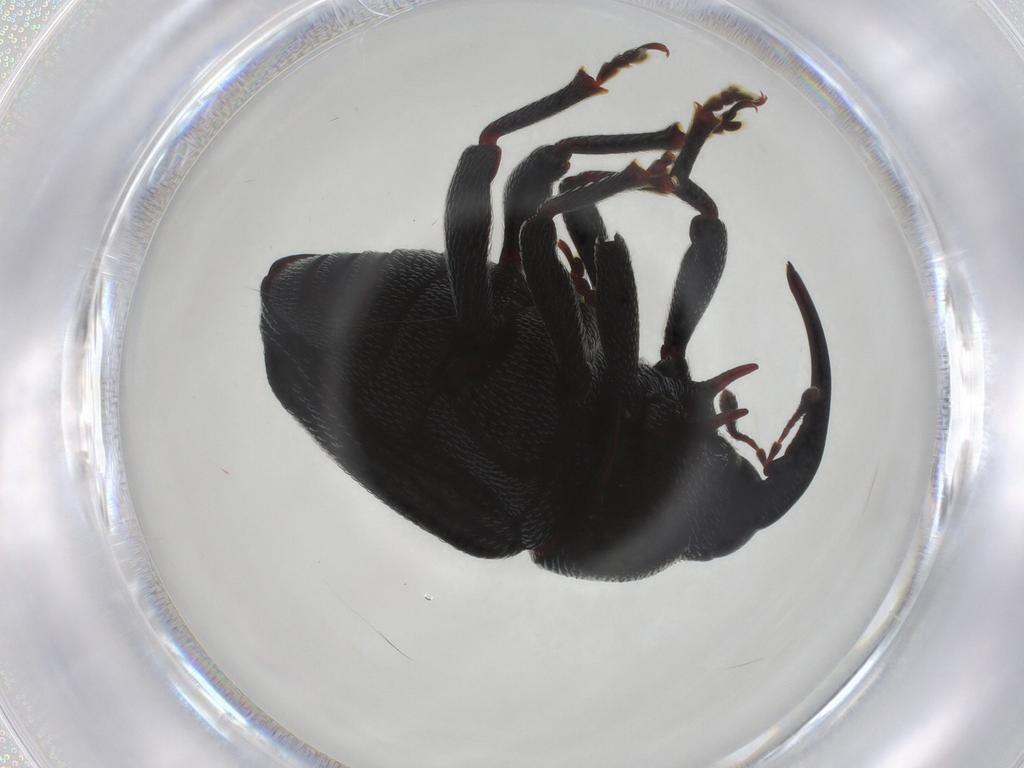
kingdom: Animalia
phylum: Arthropoda
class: Insecta
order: Coleoptera
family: Curculionidae
